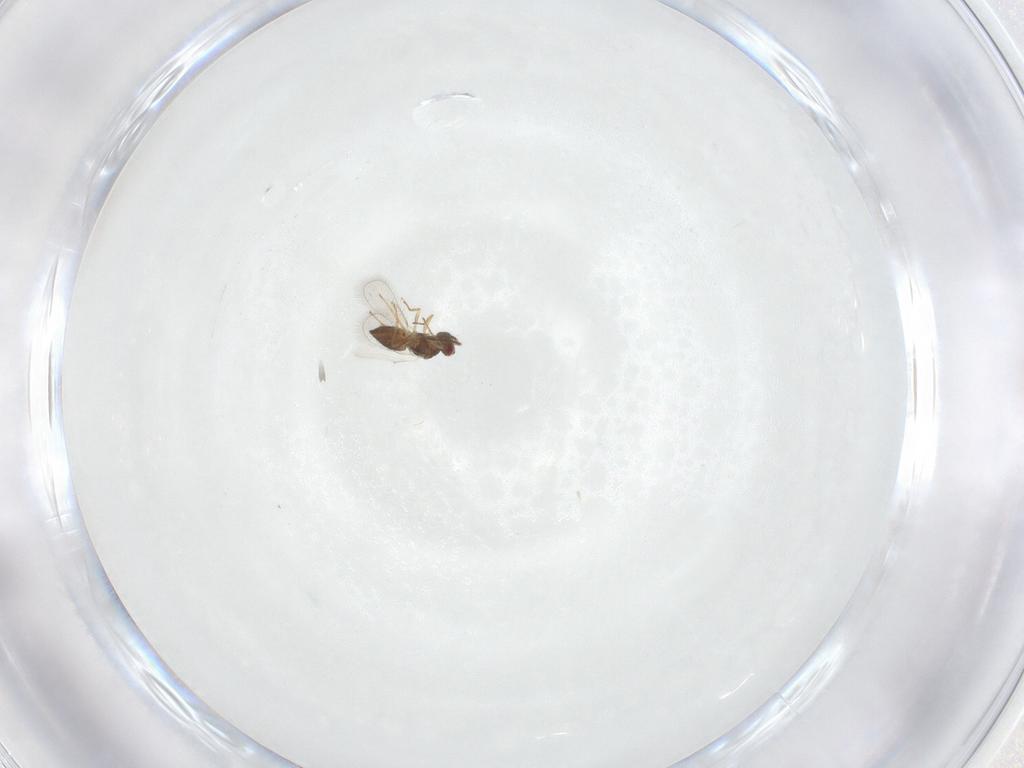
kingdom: Animalia
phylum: Arthropoda
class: Insecta
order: Hymenoptera
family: Eulophidae
